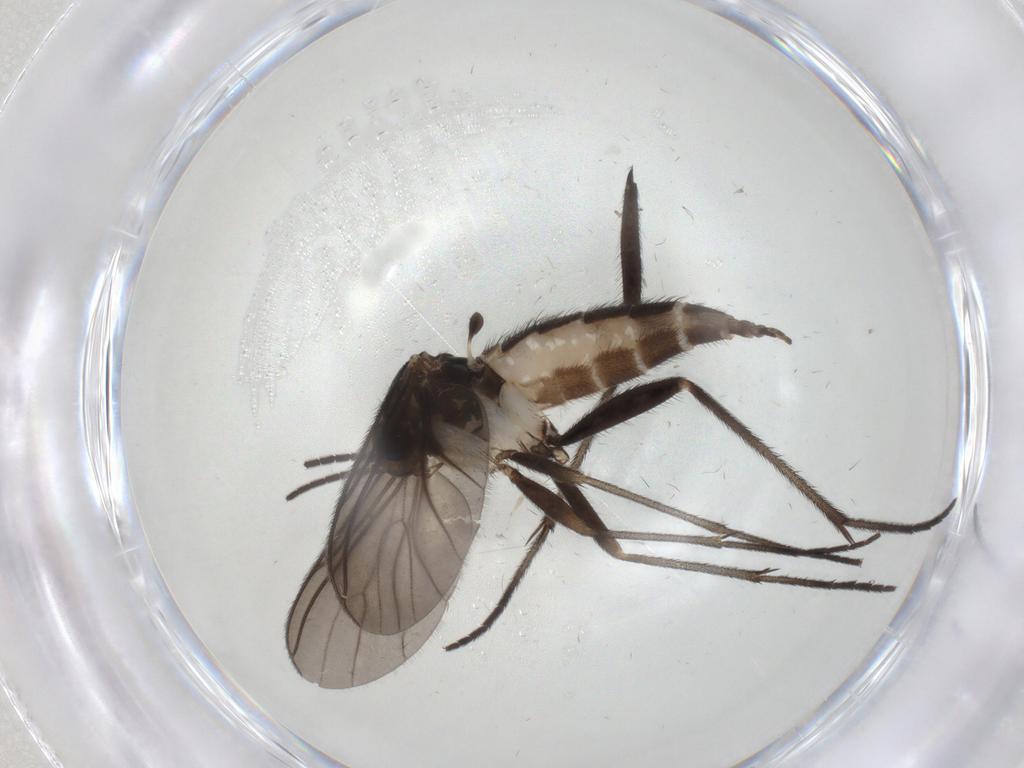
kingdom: Animalia
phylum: Arthropoda
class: Insecta
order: Diptera
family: Sciaridae
